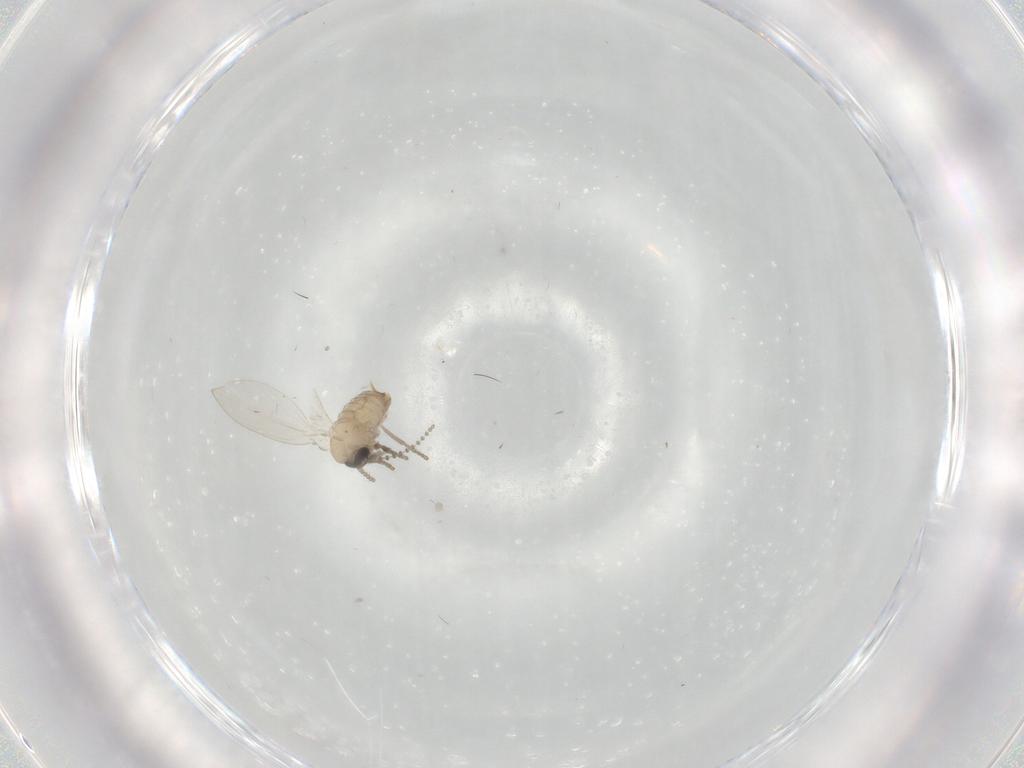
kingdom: Animalia
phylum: Arthropoda
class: Insecta
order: Diptera
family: Psychodidae
